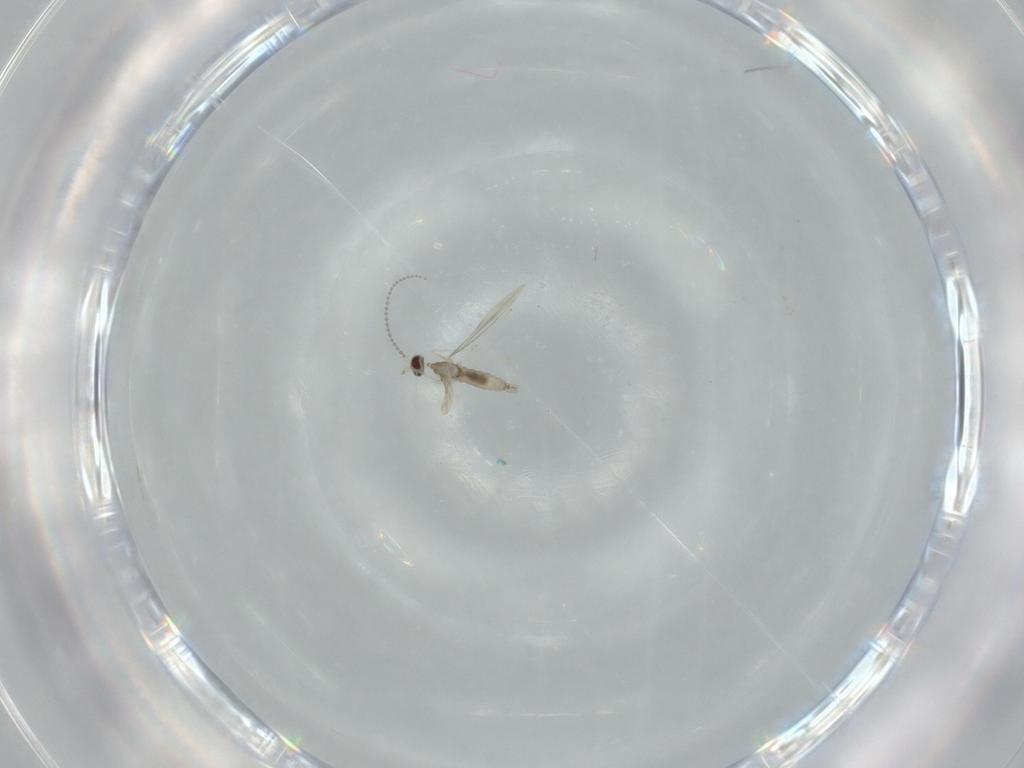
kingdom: Animalia
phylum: Arthropoda
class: Insecta
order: Diptera
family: Cecidomyiidae
